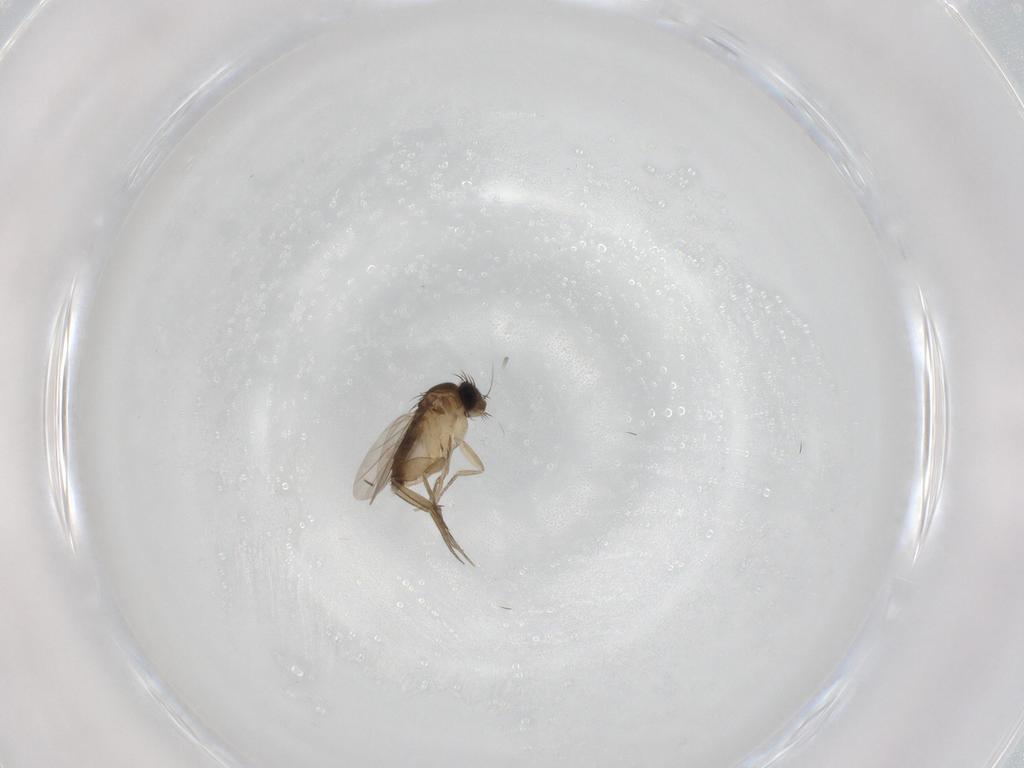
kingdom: Animalia
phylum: Arthropoda
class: Insecta
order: Diptera
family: Phoridae
